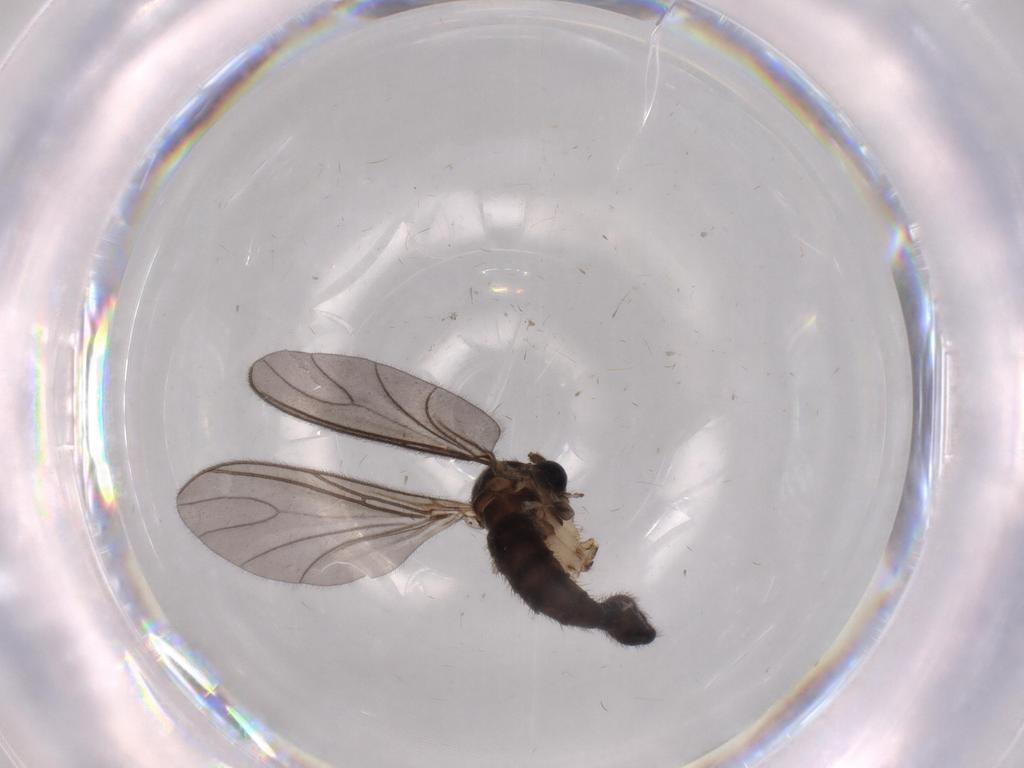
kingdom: Animalia
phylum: Arthropoda
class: Insecta
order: Diptera
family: Sciaridae
